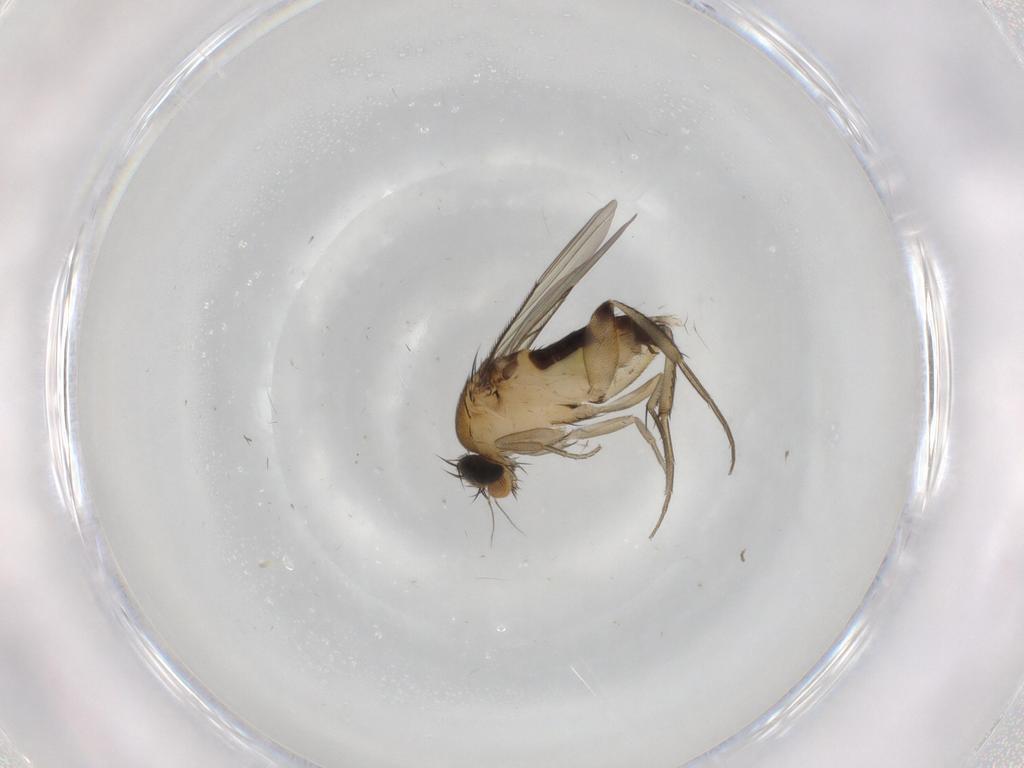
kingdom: Animalia
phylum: Arthropoda
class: Insecta
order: Diptera
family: Phoridae
